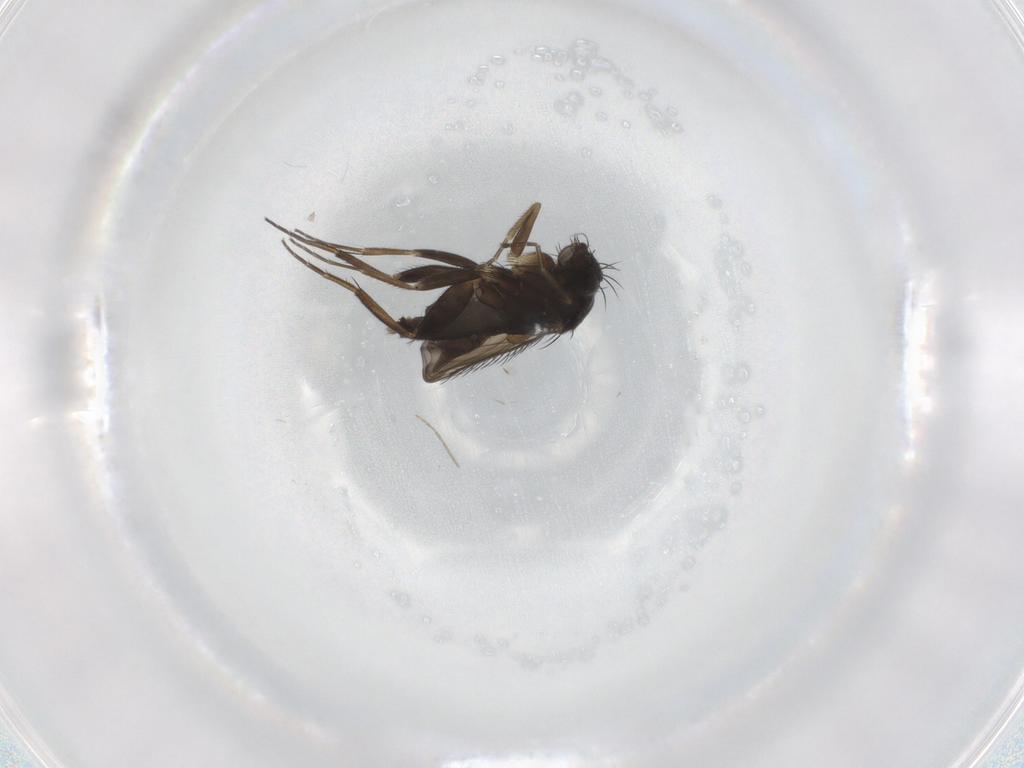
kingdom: Animalia
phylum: Arthropoda
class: Insecta
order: Diptera
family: Phoridae
